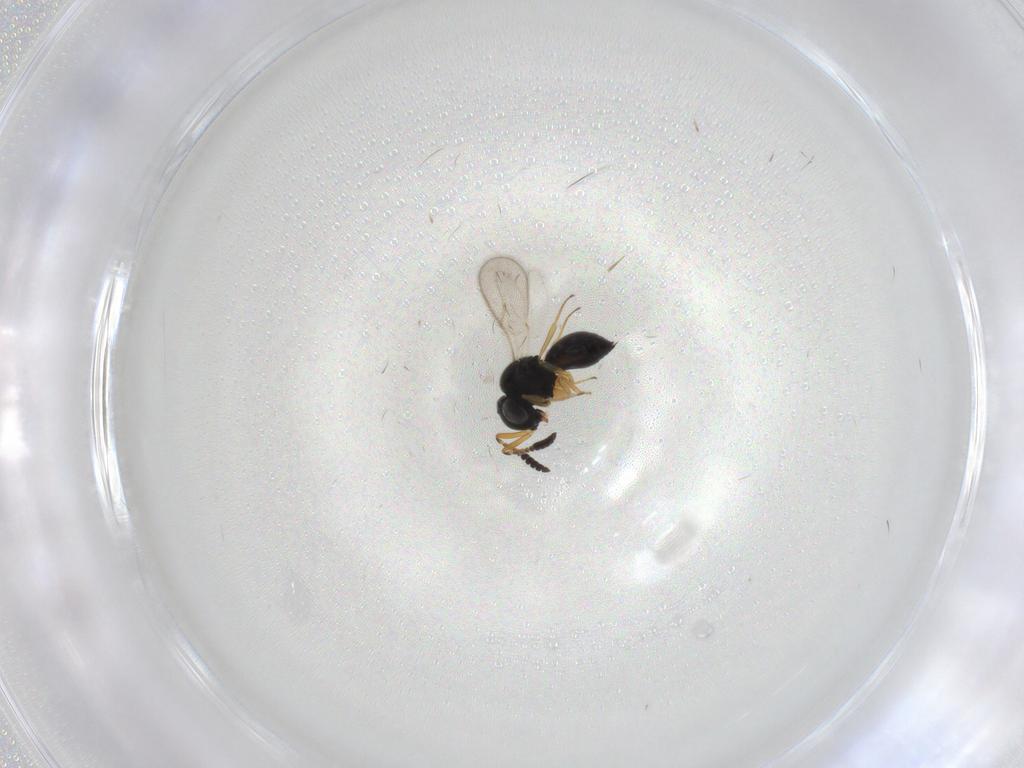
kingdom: Animalia
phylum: Arthropoda
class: Insecta
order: Hymenoptera
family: Scelionidae
